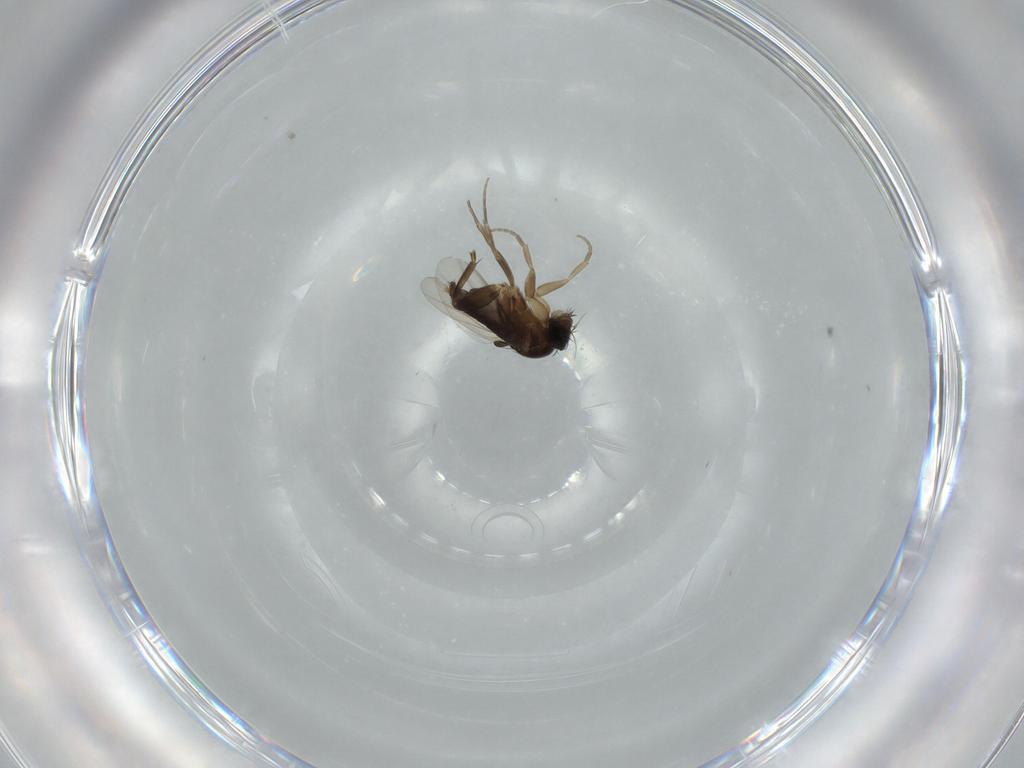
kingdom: Animalia
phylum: Arthropoda
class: Insecta
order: Diptera
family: Phoridae
